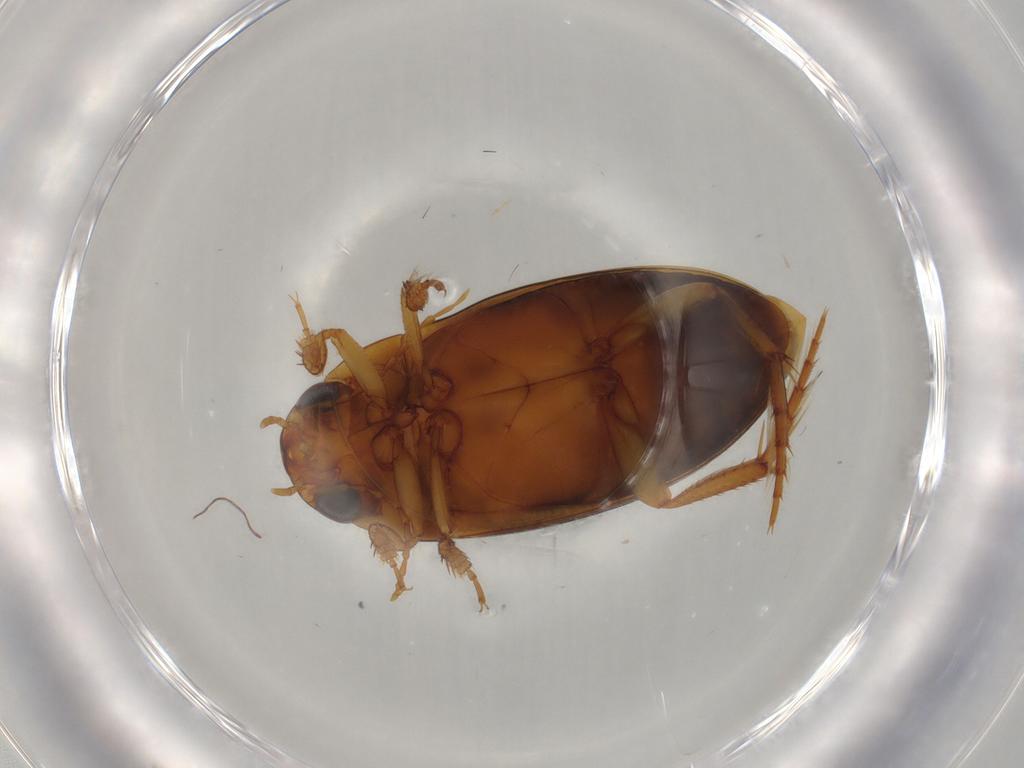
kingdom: Animalia
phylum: Arthropoda
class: Insecta
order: Coleoptera
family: Dytiscidae
